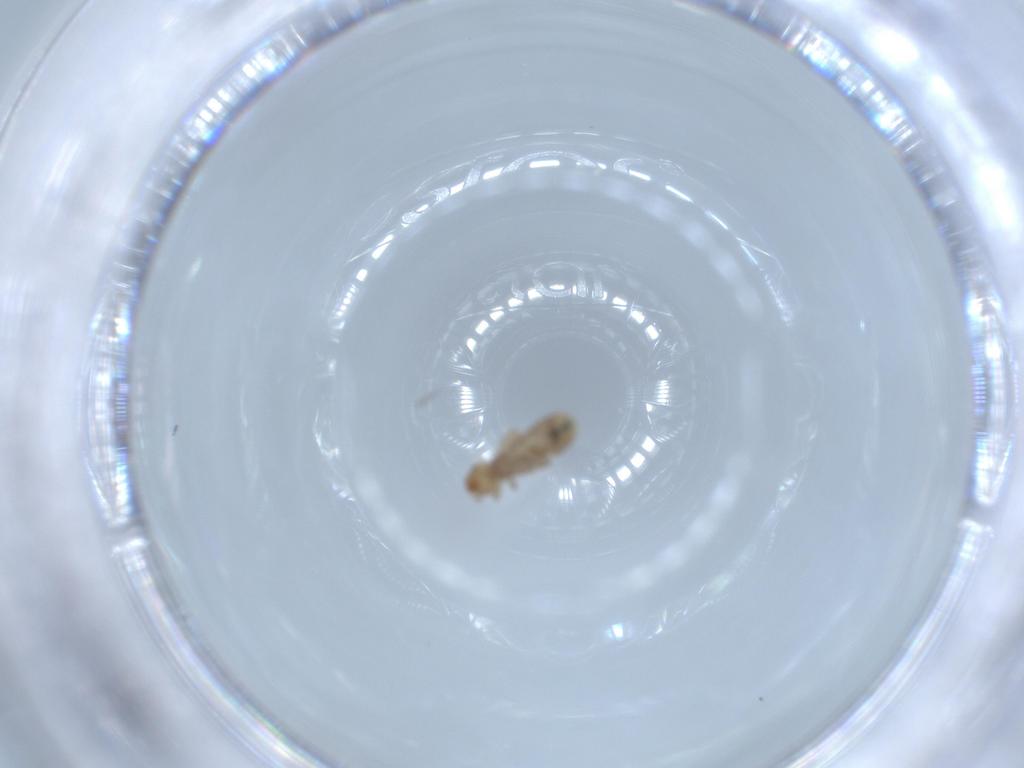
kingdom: Animalia
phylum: Arthropoda
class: Insecta
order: Psocodea
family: Liposcelididae
